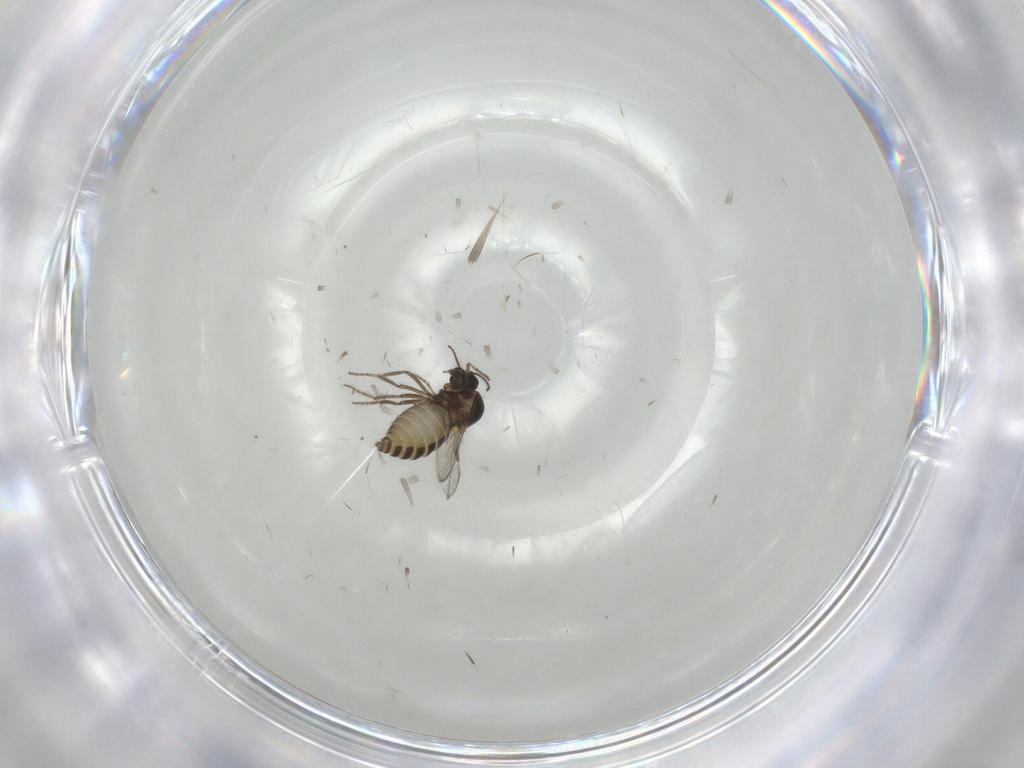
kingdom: Animalia
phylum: Arthropoda
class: Insecta
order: Diptera
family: Ceratopogonidae
